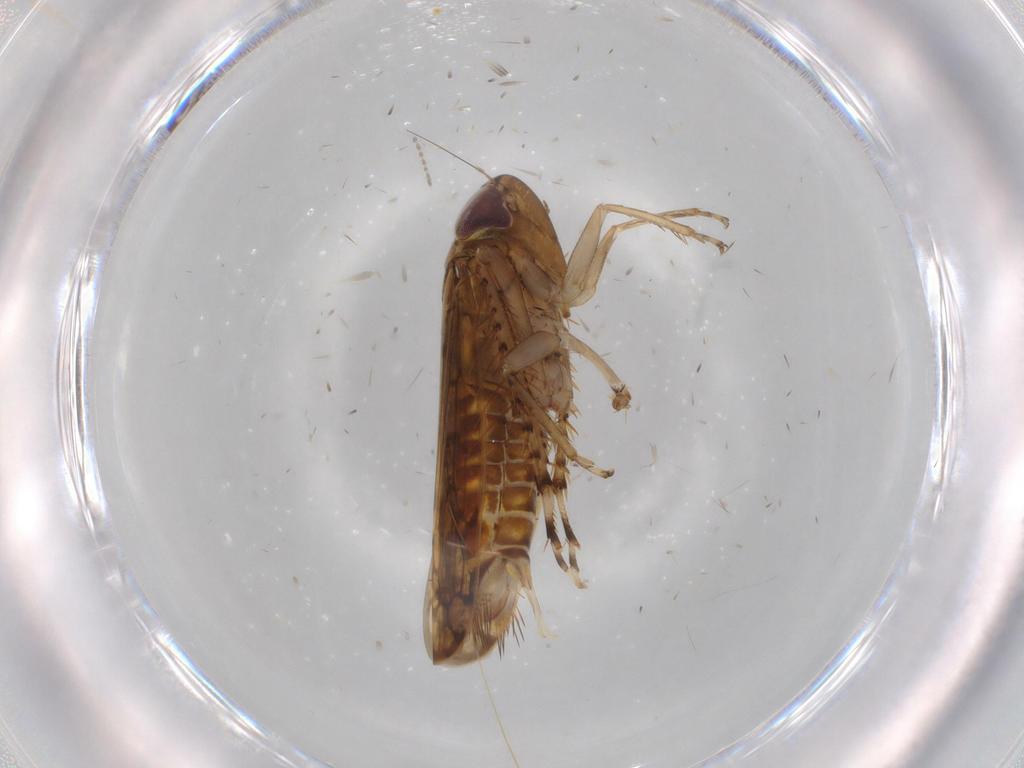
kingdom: Animalia
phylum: Arthropoda
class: Insecta
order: Hemiptera
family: Cicadellidae
